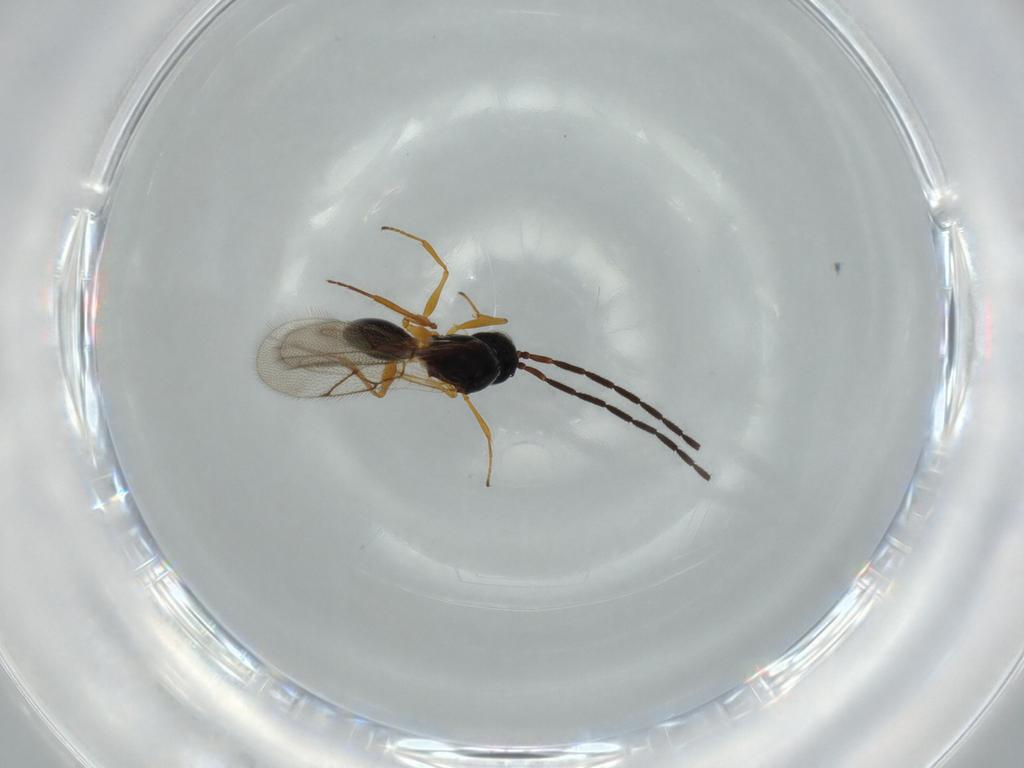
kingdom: Animalia
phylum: Arthropoda
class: Insecta
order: Hymenoptera
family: Figitidae
